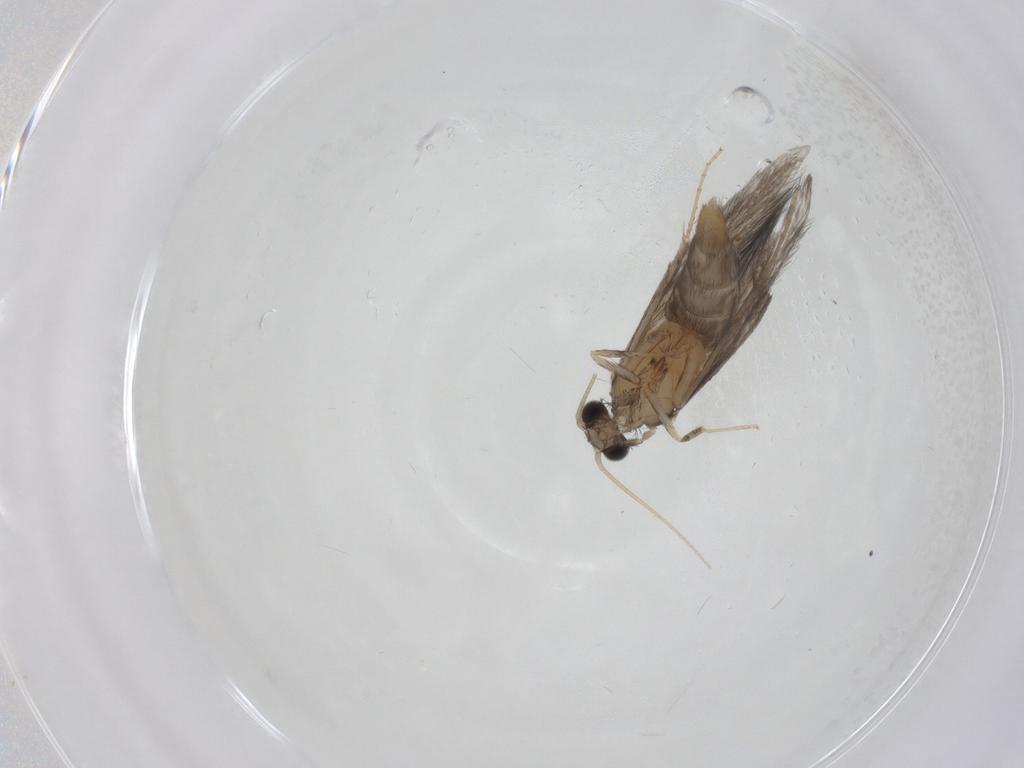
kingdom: Animalia
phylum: Arthropoda
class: Insecta
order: Trichoptera
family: Hydroptilidae
